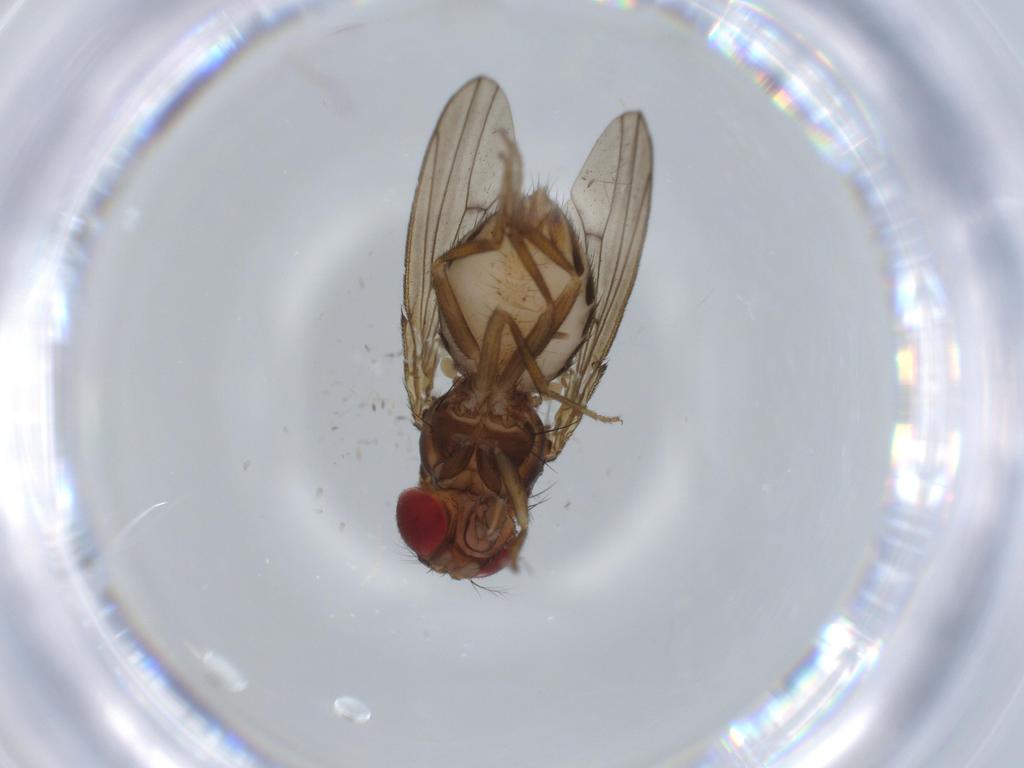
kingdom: Animalia
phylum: Arthropoda
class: Insecta
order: Diptera
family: Drosophilidae
